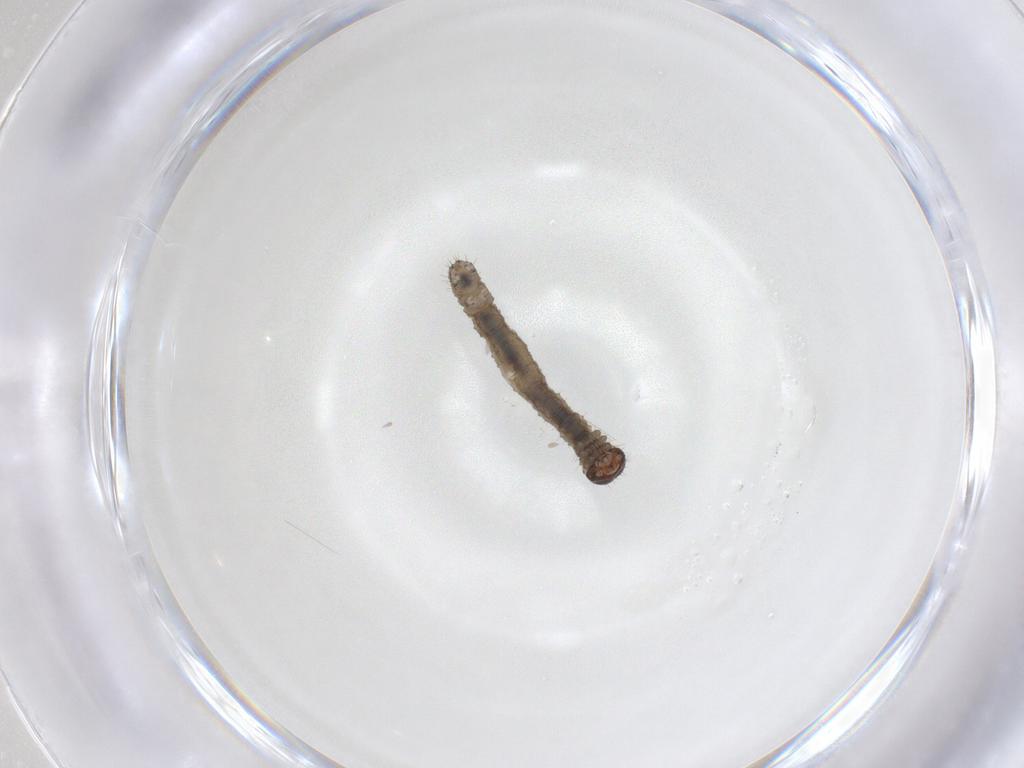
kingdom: Animalia
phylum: Arthropoda
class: Insecta
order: Lepidoptera
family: Geometridae
